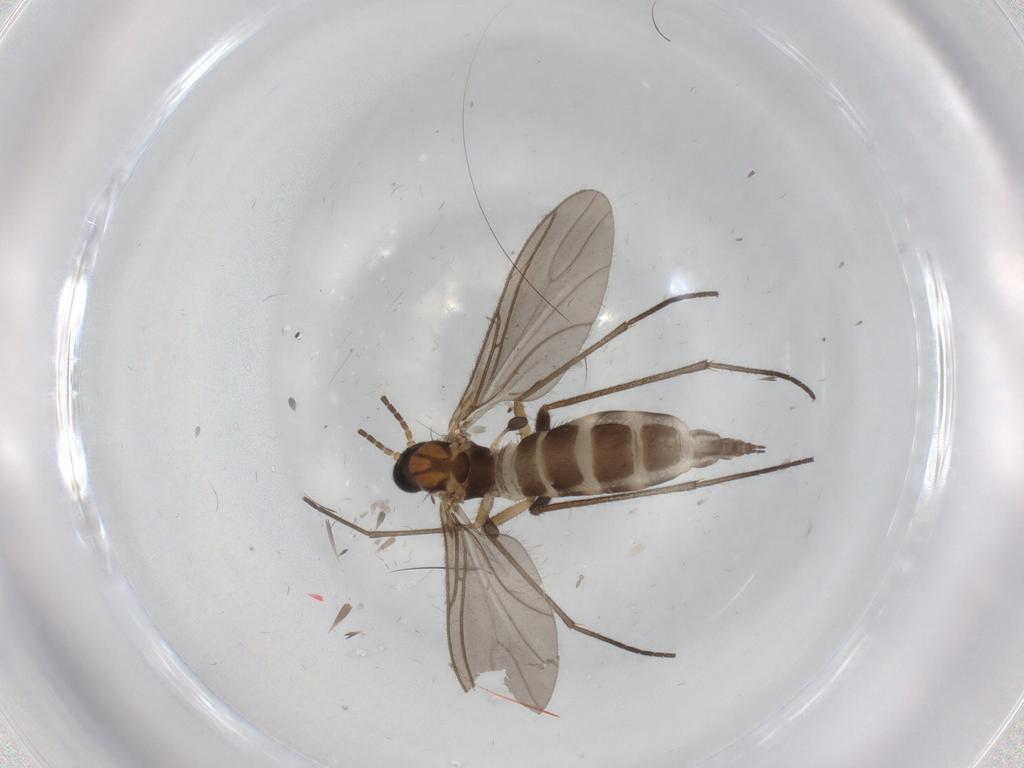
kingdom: Animalia
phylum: Arthropoda
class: Insecta
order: Diptera
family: Sciaridae
